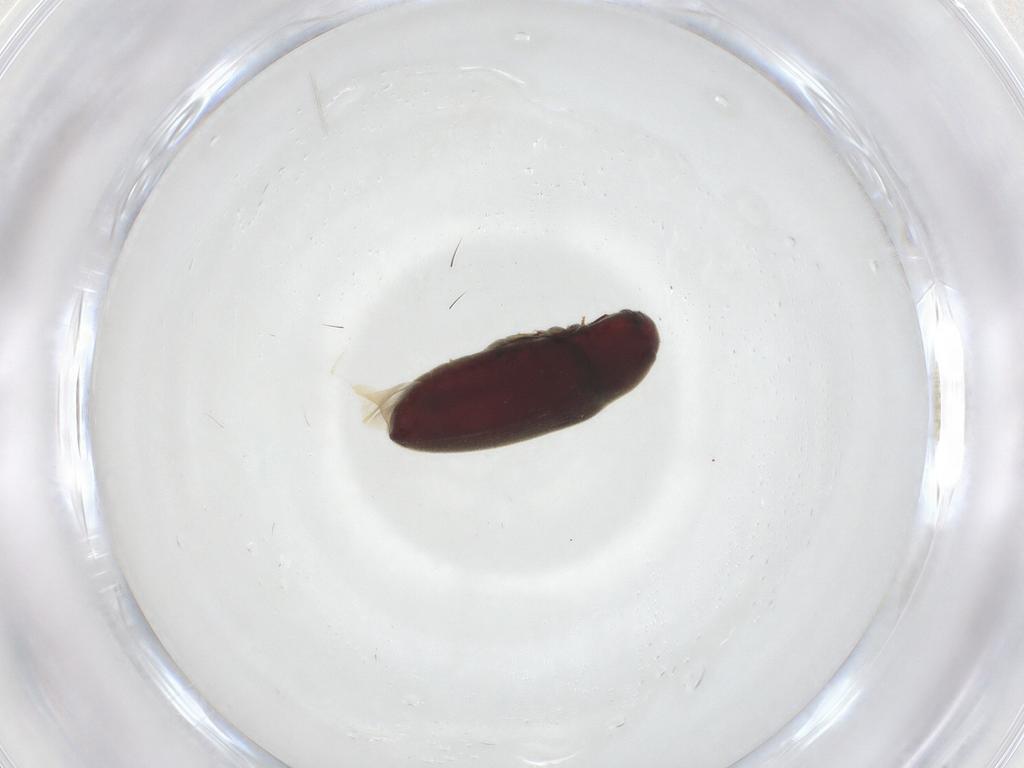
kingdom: Animalia
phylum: Arthropoda
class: Insecta
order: Coleoptera
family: Throscidae
